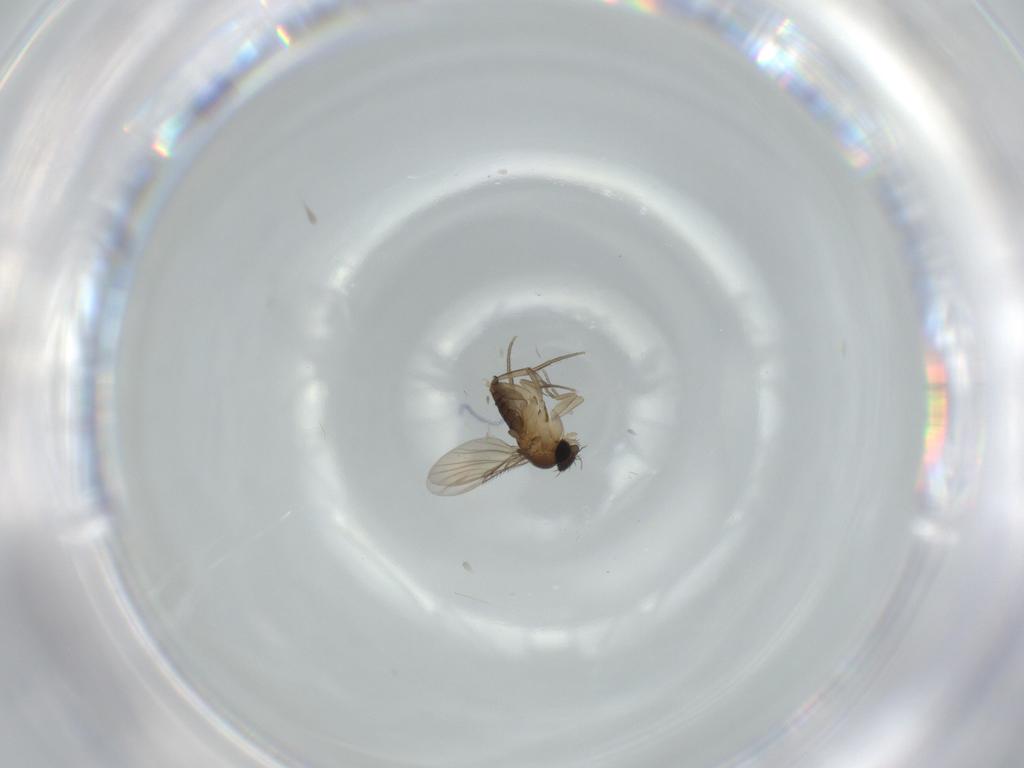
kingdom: Animalia
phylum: Arthropoda
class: Insecta
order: Diptera
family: Phoridae
